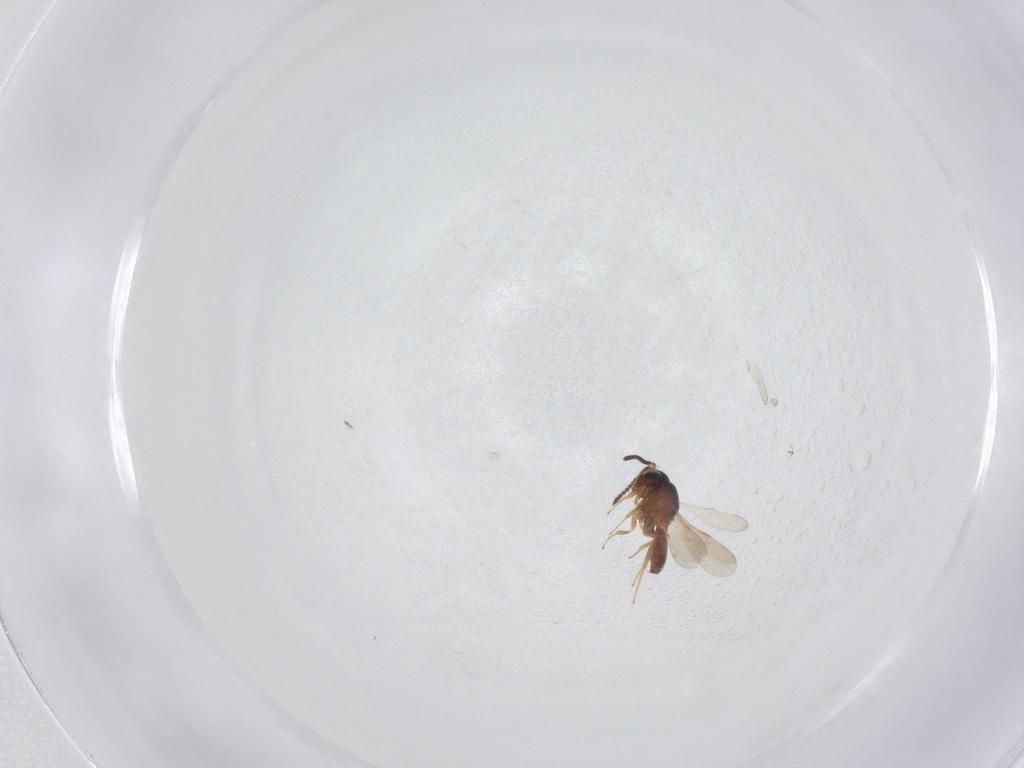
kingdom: Animalia
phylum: Arthropoda
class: Insecta
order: Hymenoptera
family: Scelionidae
